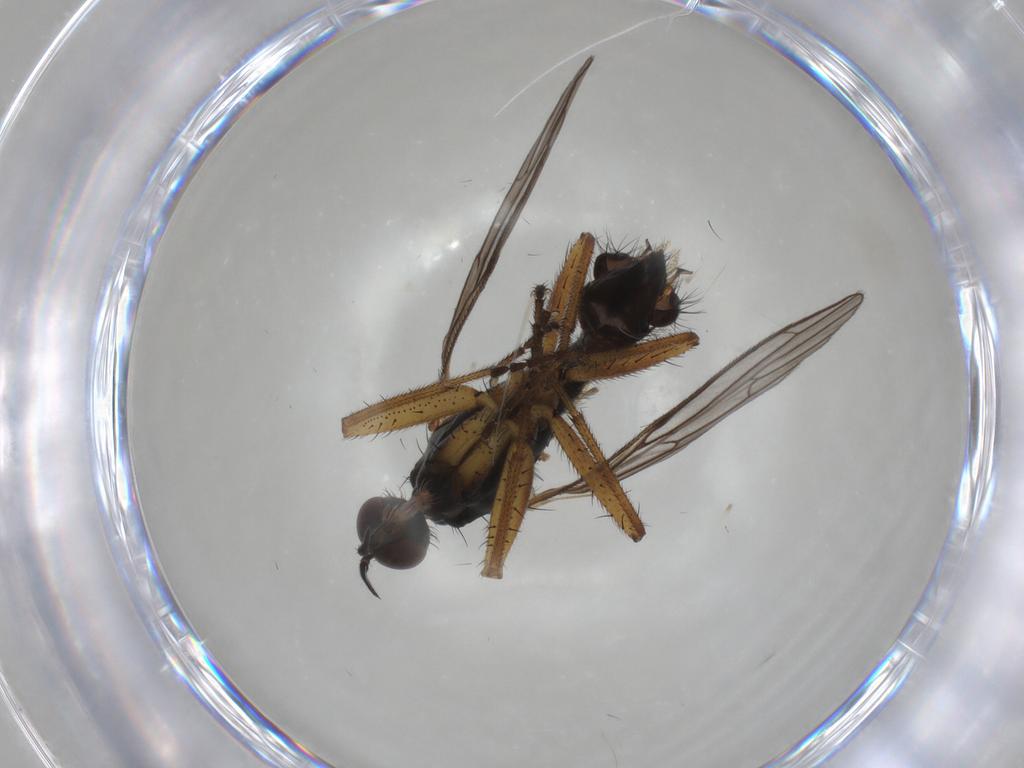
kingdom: Animalia
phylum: Arthropoda
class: Insecta
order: Diptera
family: Empididae
